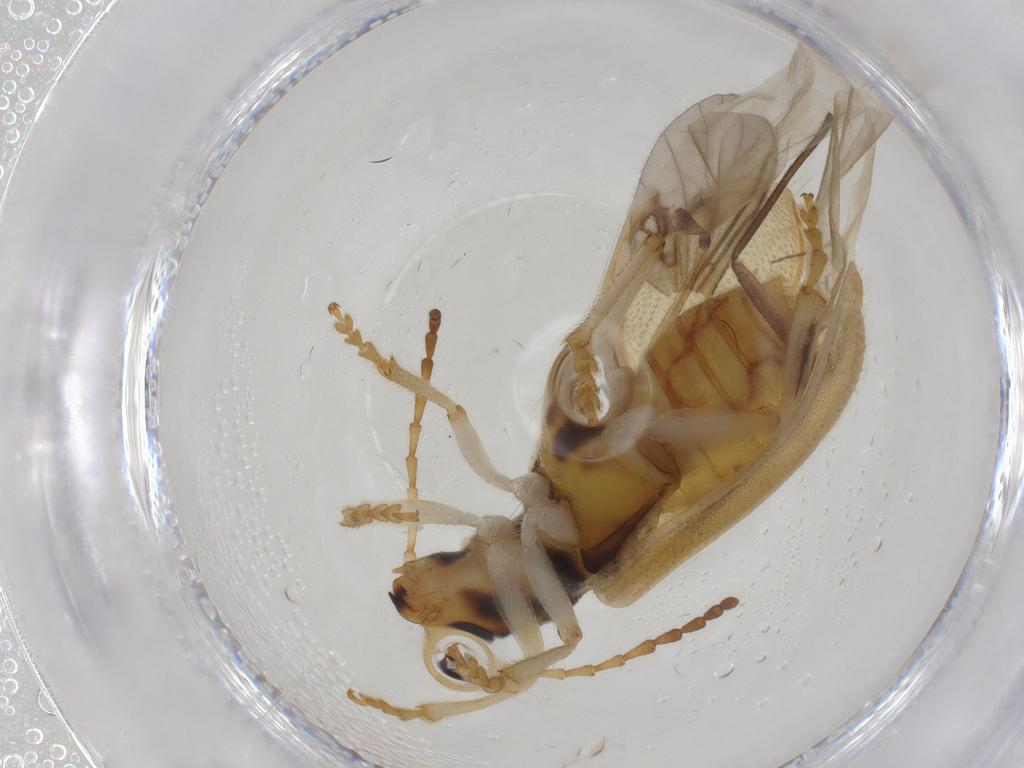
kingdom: Animalia
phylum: Arthropoda
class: Insecta
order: Coleoptera
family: Chrysomelidae
